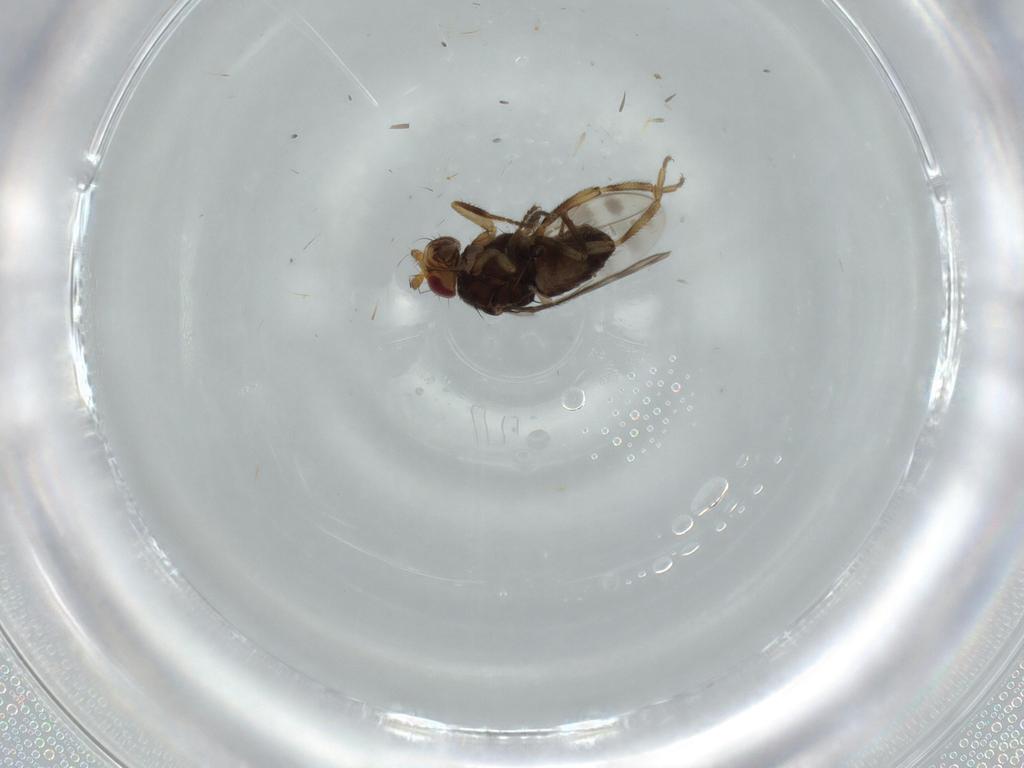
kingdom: Animalia
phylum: Arthropoda
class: Insecta
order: Diptera
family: Sphaeroceridae
